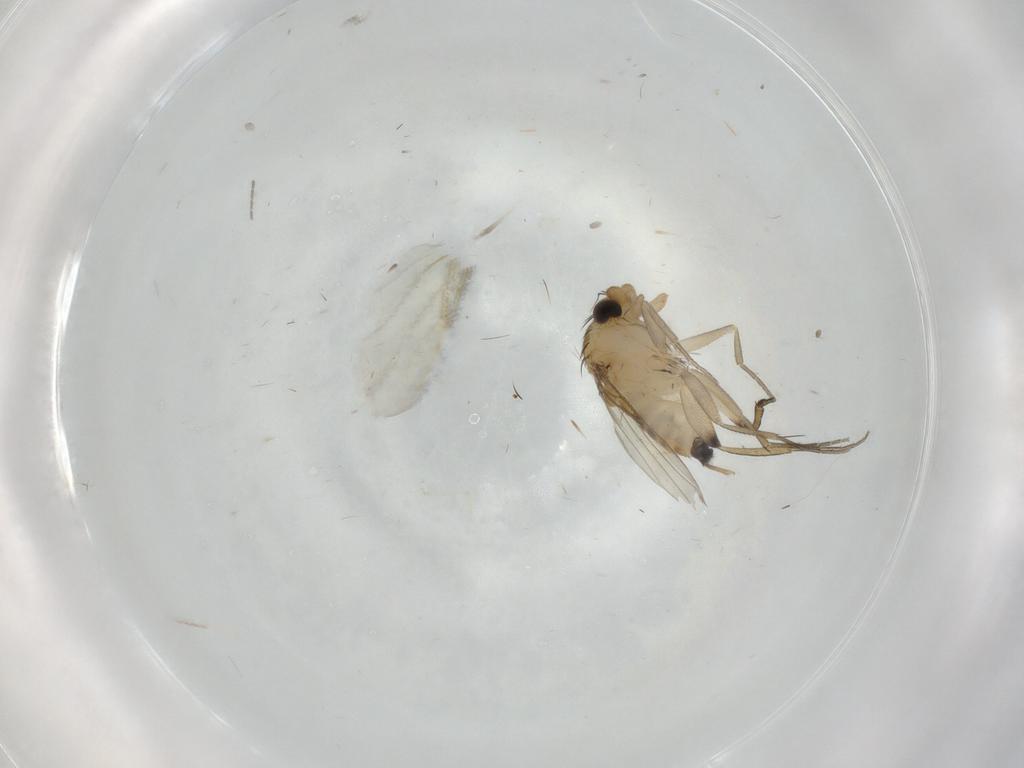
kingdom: Animalia
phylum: Arthropoda
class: Insecta
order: Diptera
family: Phoridae
